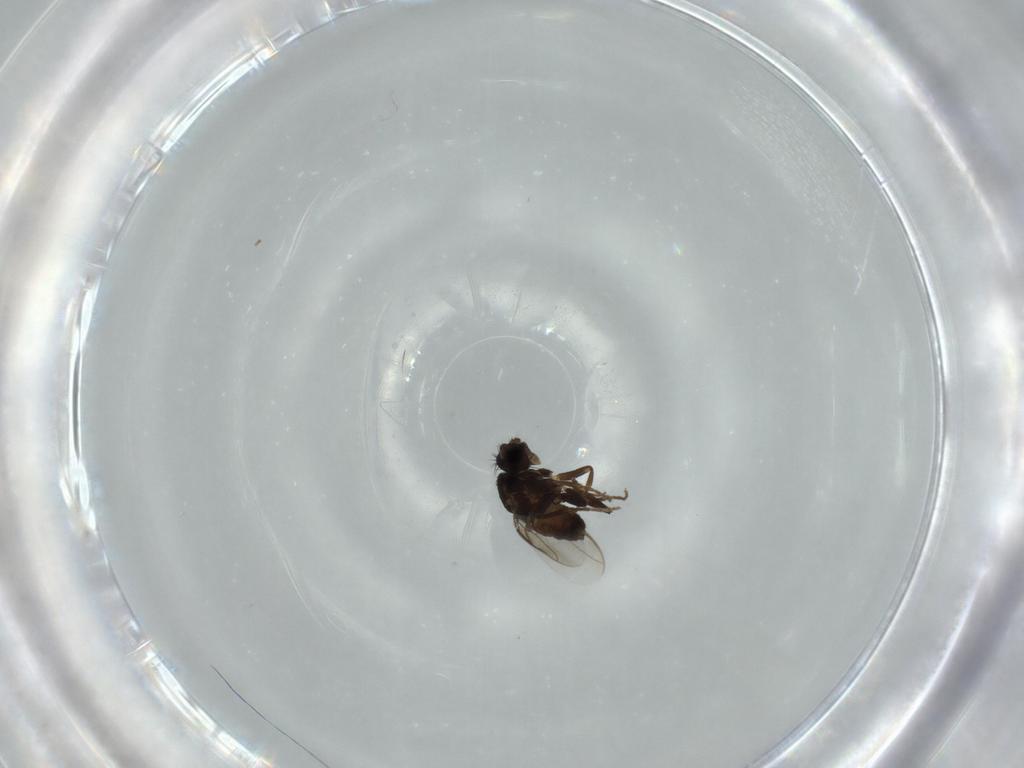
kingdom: Animalia
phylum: Arthropoda
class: Insecta
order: Diptera
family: Sphaeroceridae
